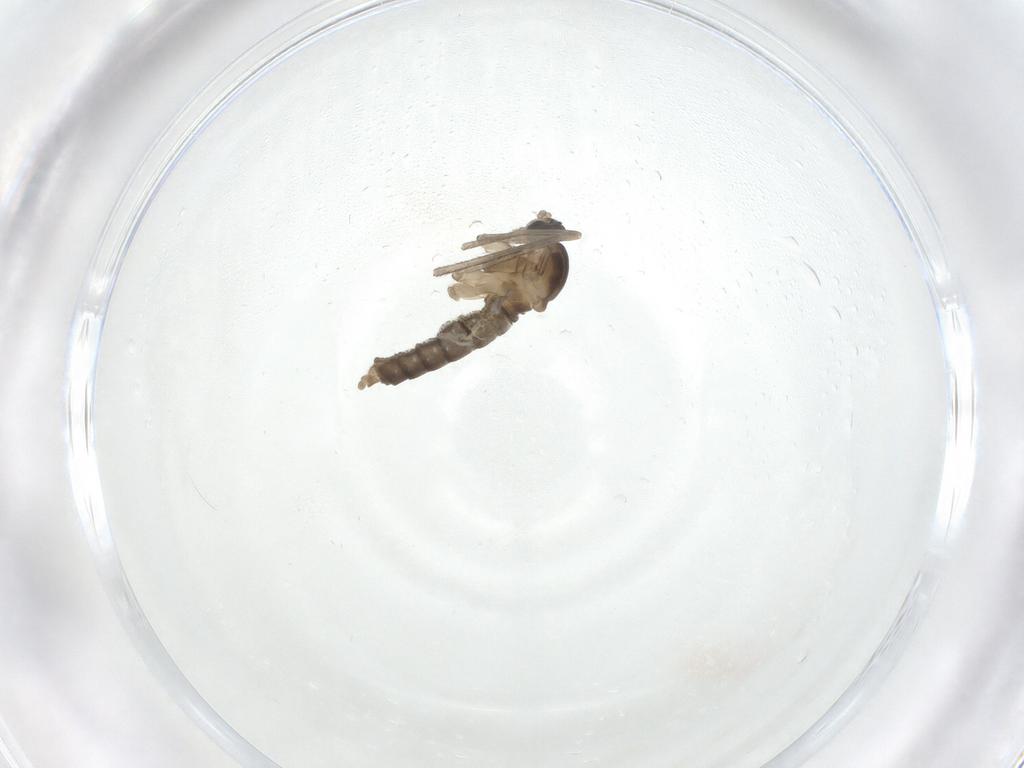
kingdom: Animalia
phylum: Arthropoda
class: Insecta
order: Diptera
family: Cecidomyiidae
